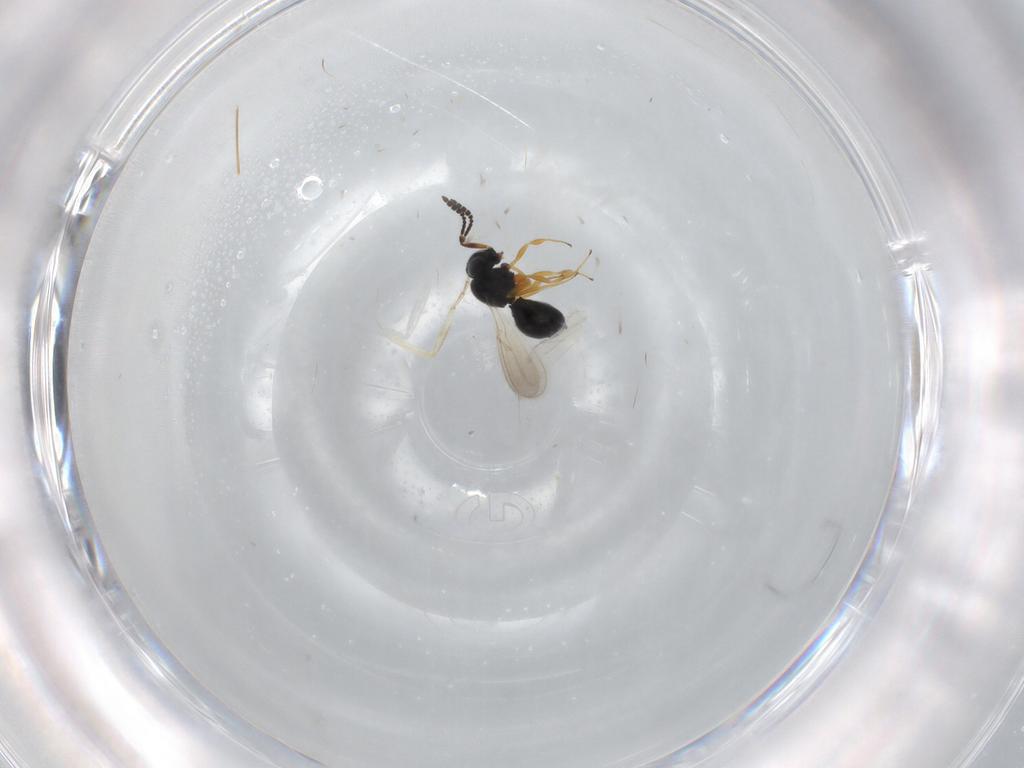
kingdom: Animalia
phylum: Arthropoda
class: Insecta
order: Hymenoptera
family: Scelionidae
